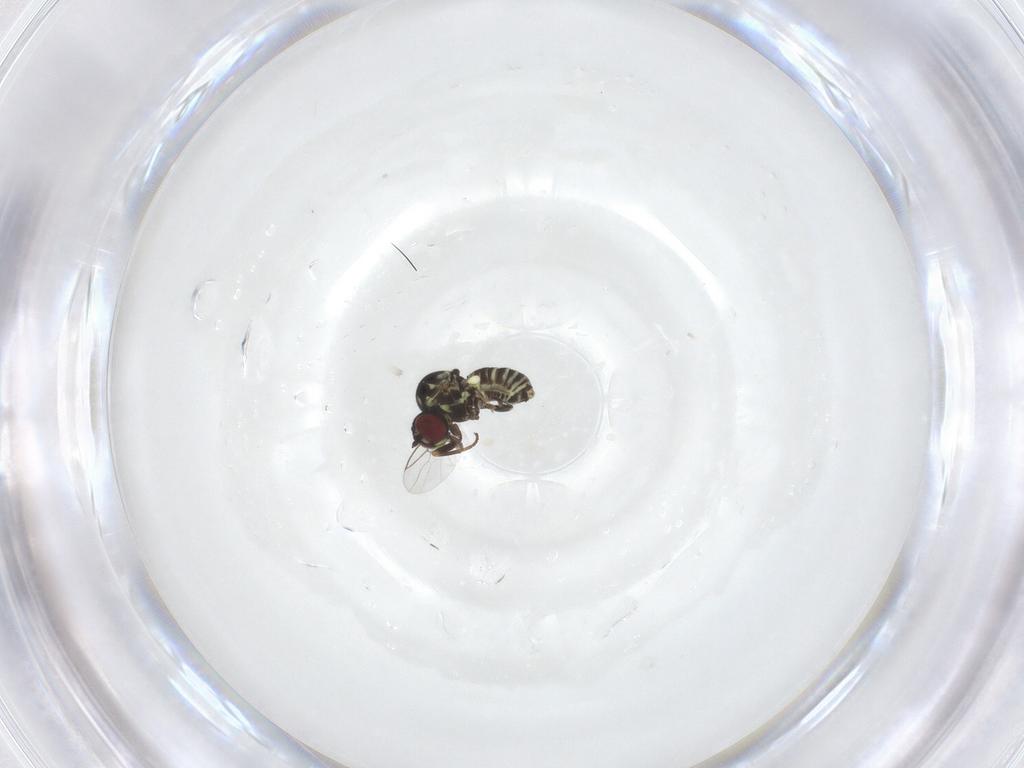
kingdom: Animalia
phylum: Arthropoda
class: Insecta
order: Diptera
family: Mythicomyiidae
